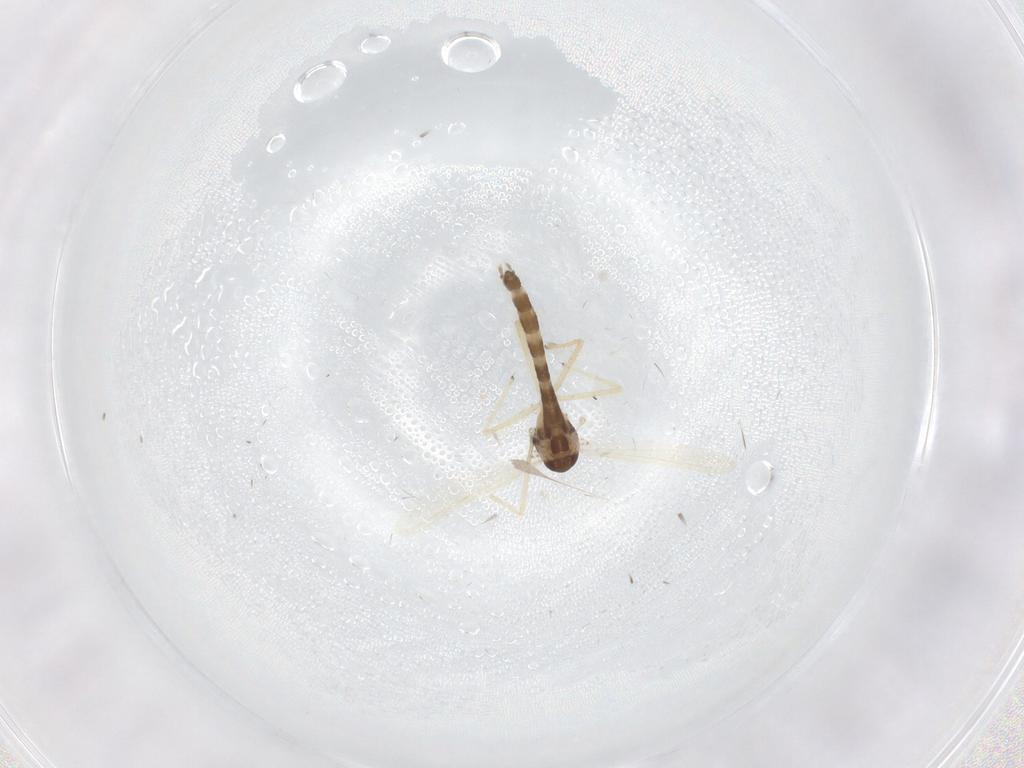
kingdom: Animalia
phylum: Arthropoda
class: Insecta
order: Diptera
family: Chironomidae
